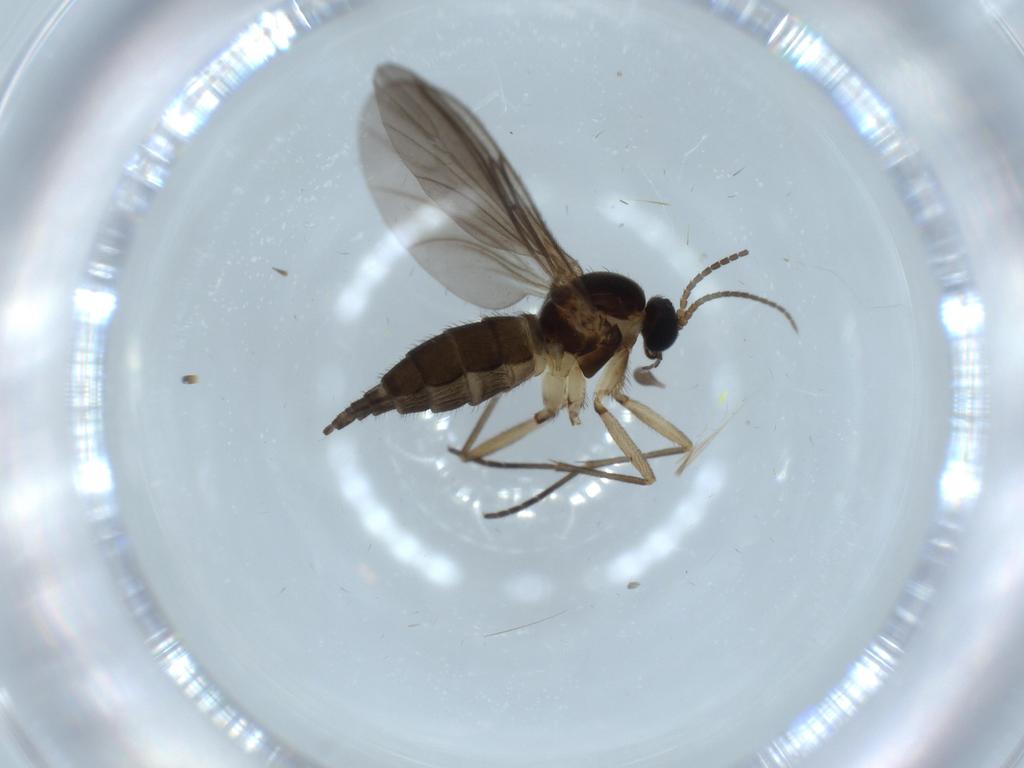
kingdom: Animalia
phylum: Arthropoda
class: Insecta
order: Diptera
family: Sciaridae
